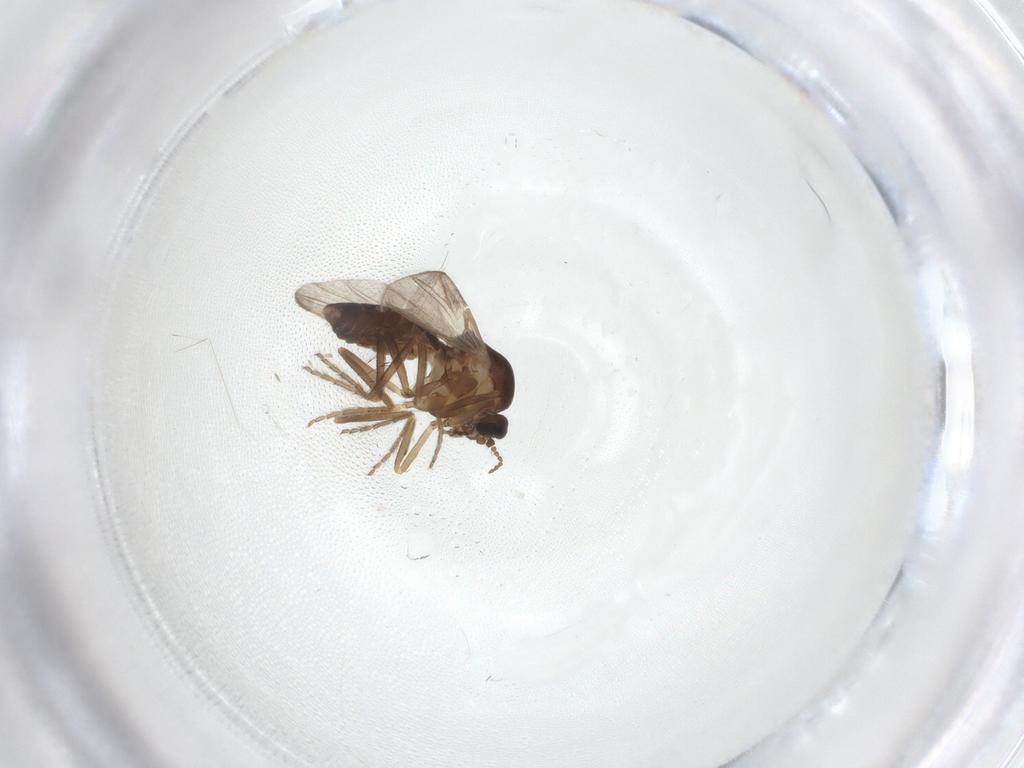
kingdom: Animalia
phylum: Arthropoda
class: Insecta
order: Diptera
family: Ceratopogonidae
